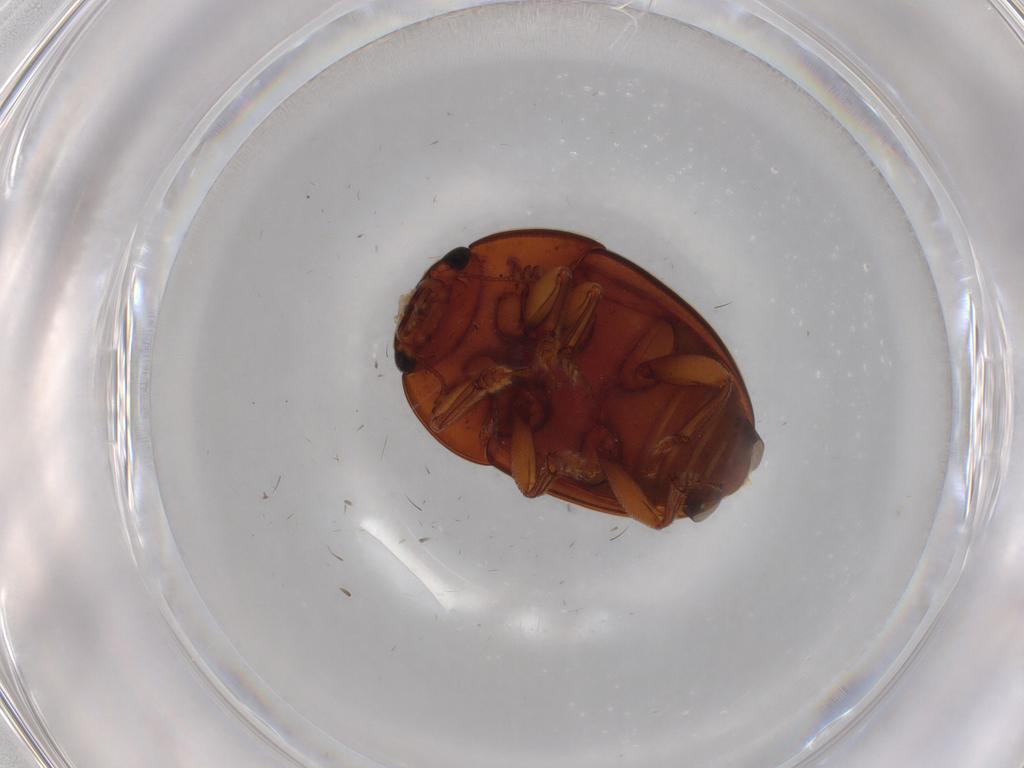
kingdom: Animalia
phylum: Arthropoda
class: Insecta
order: Coleoptera
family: Nitidulidae
